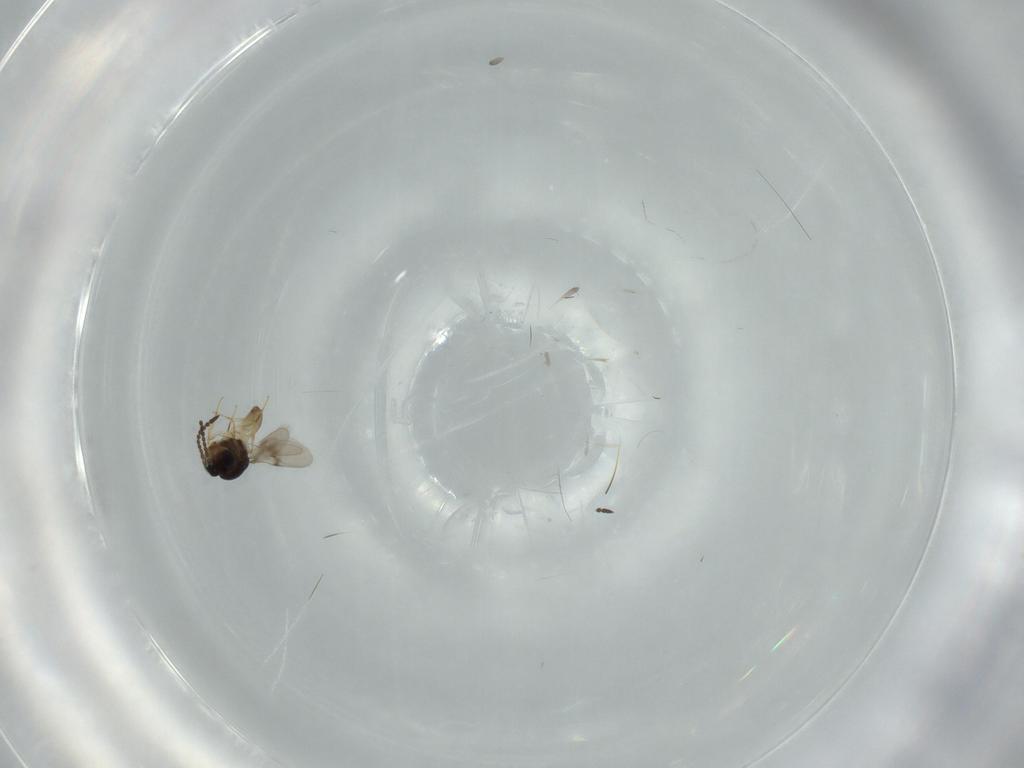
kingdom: Animalia
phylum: Arthropoda
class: Insecta
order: Hymenoptera
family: Scelionidae
